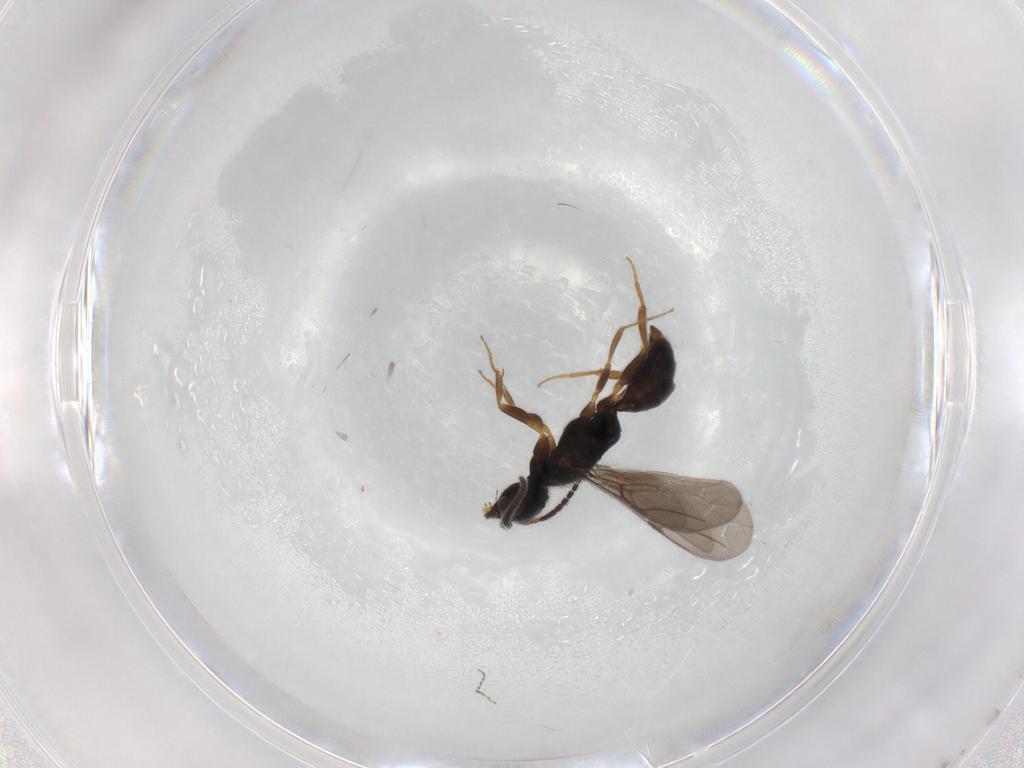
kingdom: Animalia
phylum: Arthropoda
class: Insecta
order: Hymenoptera
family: Bethylidae
